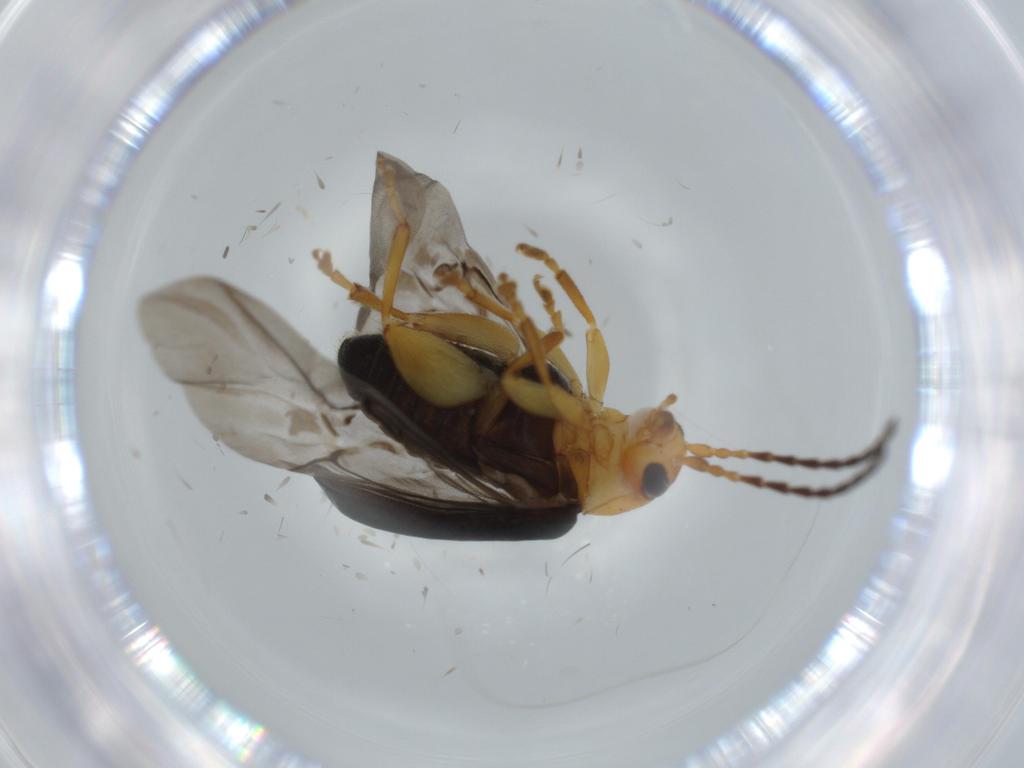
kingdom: Animalia
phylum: Arthropoda
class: Insecta
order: Coleoptera
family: Chrysomelidae
